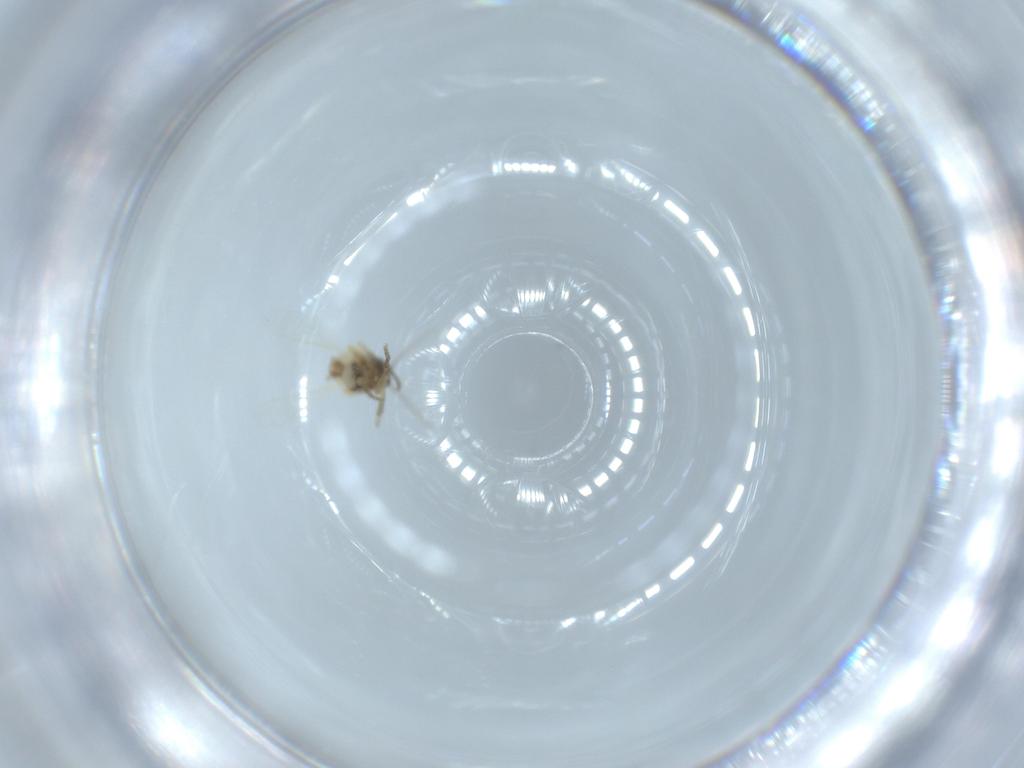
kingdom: Animalia
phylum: Arthropoda
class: Insecta
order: Diptera
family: Ceratopogonidae
